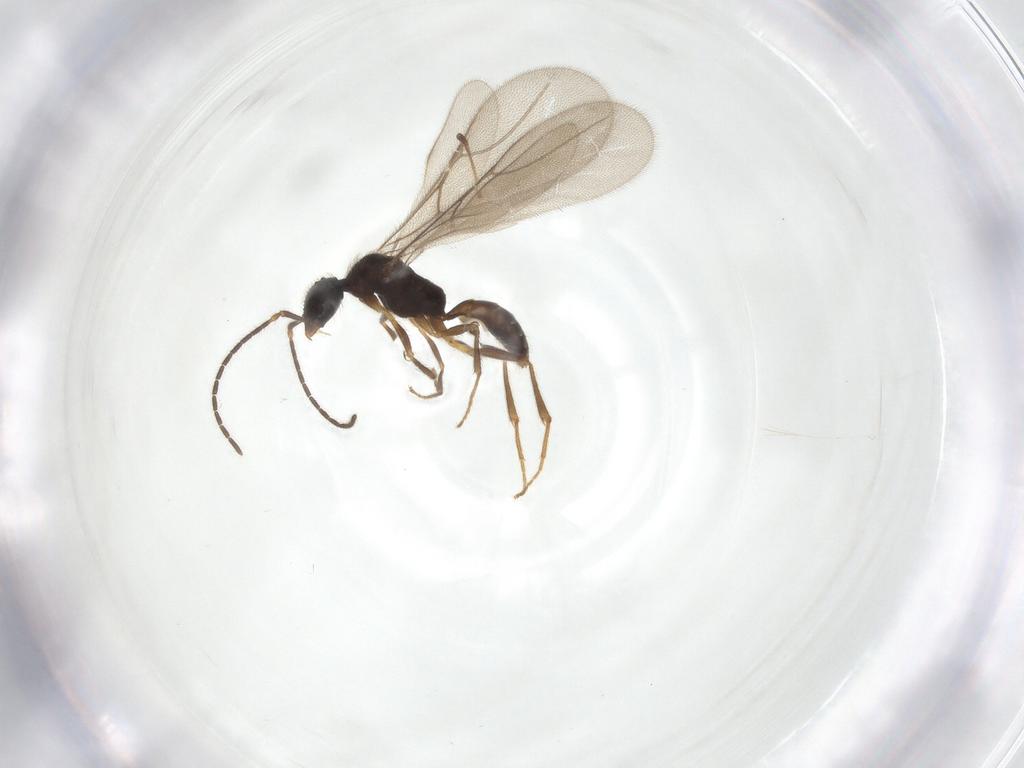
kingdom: Animalia
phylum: Arthropoda
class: Insecta
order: Hymenoptera
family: Bethylidae
